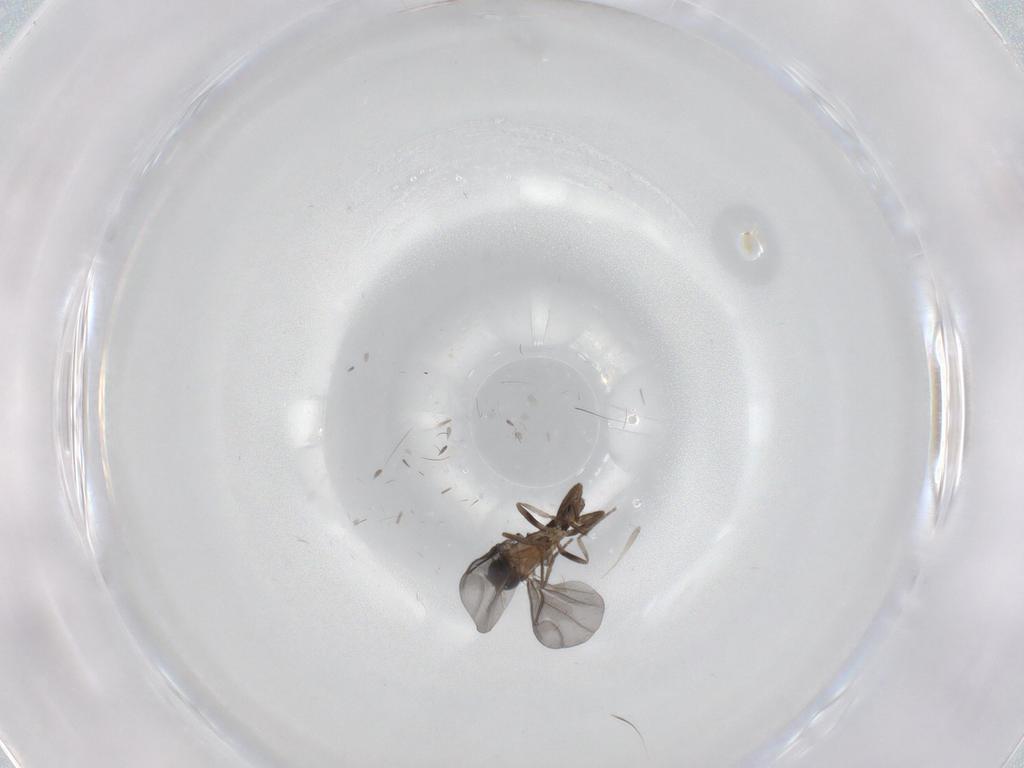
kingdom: Animalia
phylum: Arthropoda
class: Insecta
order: Diptera
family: Phoridae
